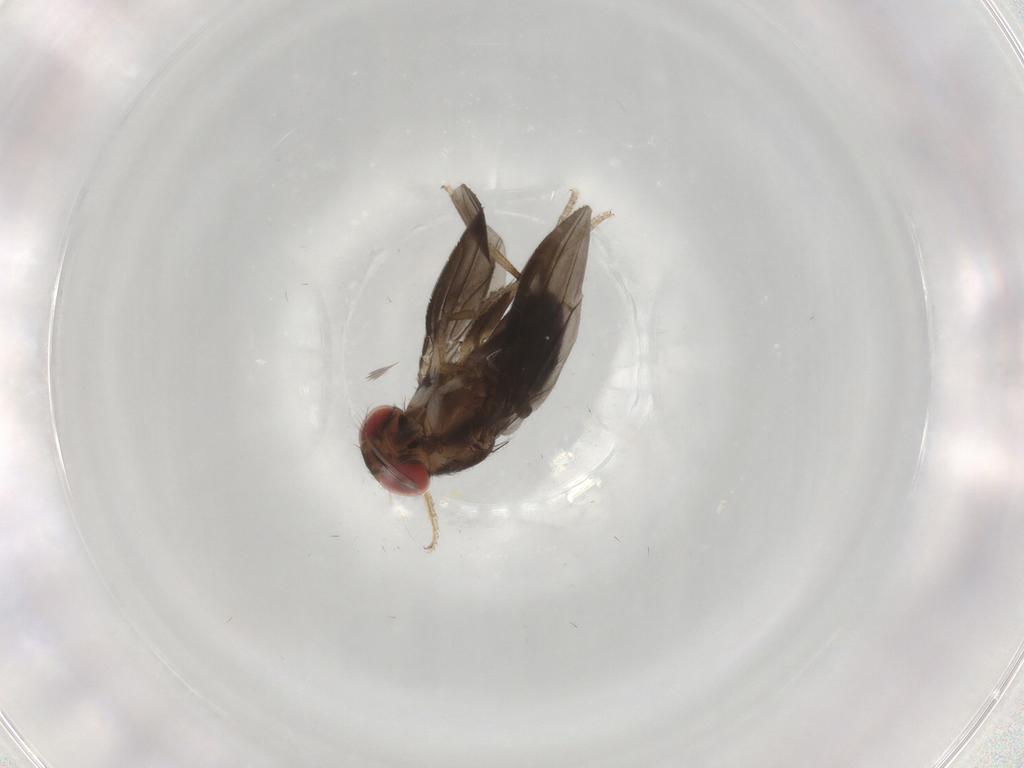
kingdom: Animalia
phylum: Arthropoda
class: Insecta
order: Diptera
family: Drosophilidae
